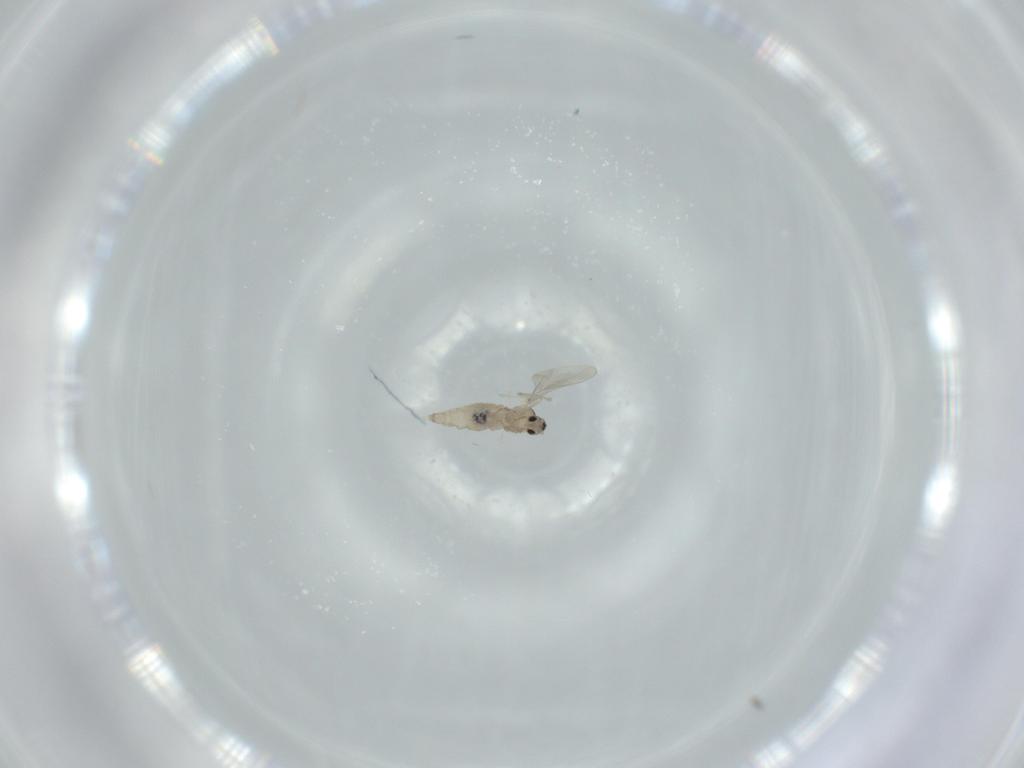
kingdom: Animalia
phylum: Arthropoda
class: Insecta
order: Diptera
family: Cecidomyiidae
